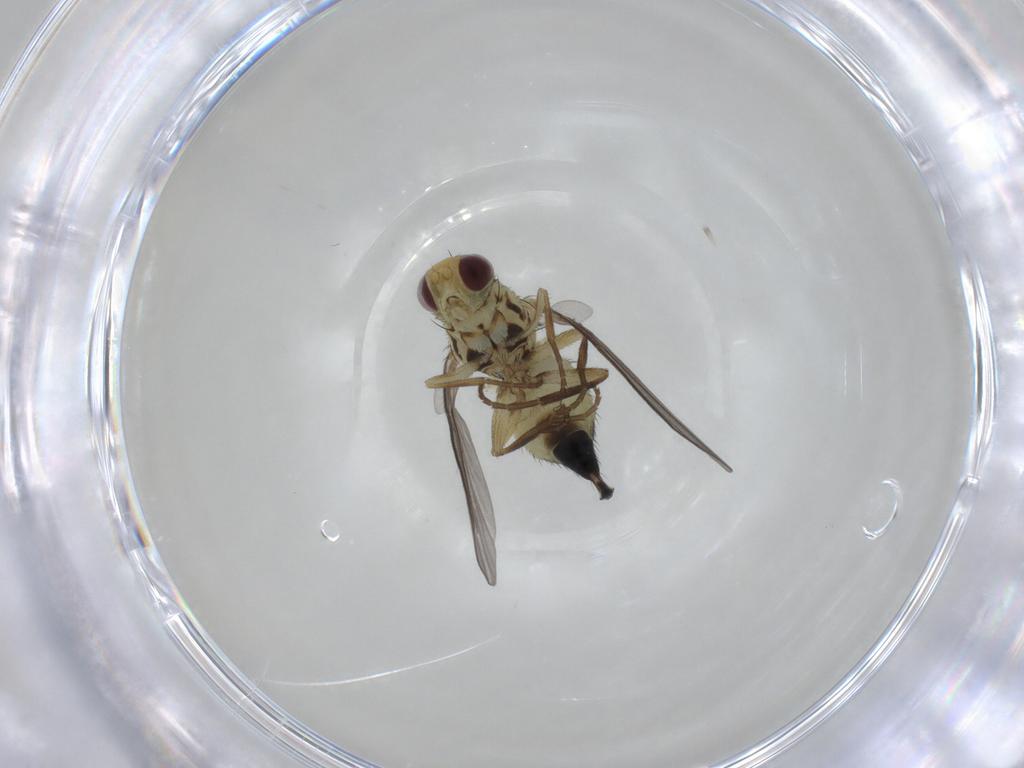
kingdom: Animalia
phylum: Arthropoda
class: Insecta
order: Diptera
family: Agromyzidae
